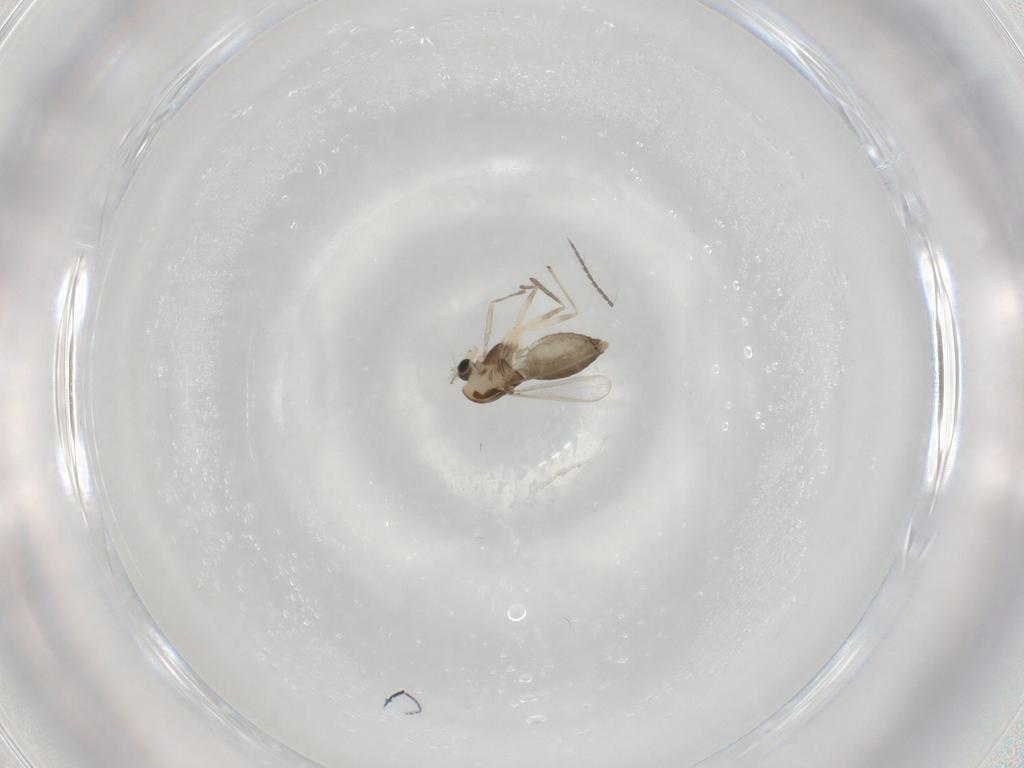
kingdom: Animalia
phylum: Arthropoda
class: Insecta
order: Diptera
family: Chironomidae
